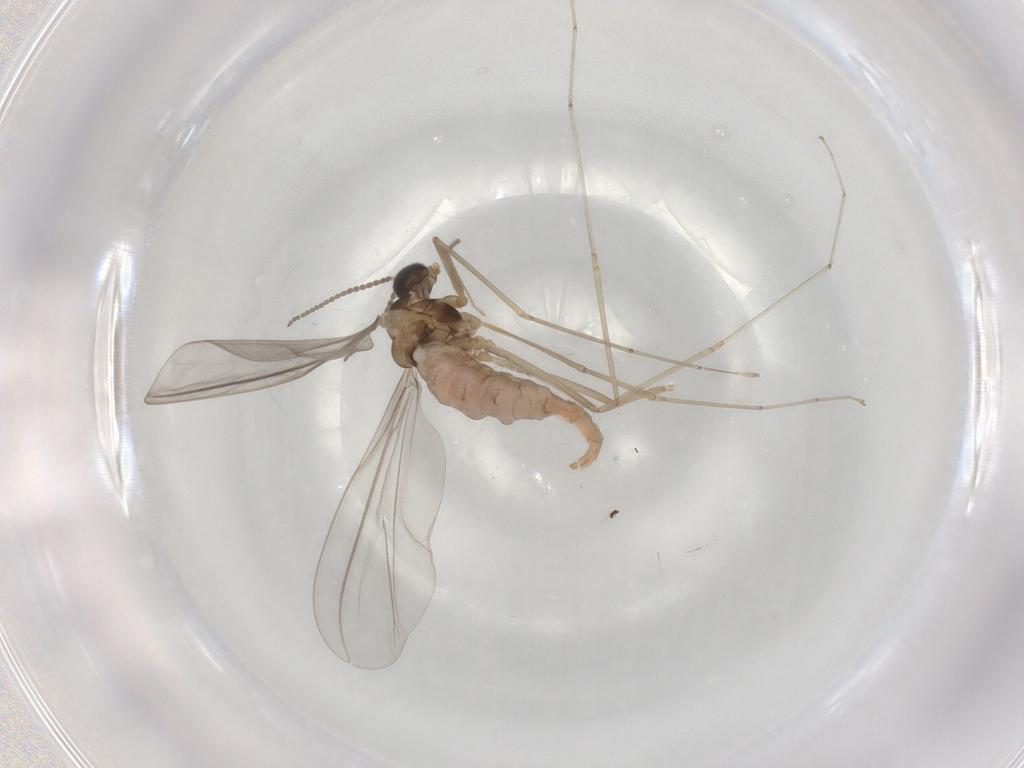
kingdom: Animalia
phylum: Arthropoda
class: Insecta
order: Diptera
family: Cecidomyiidae
